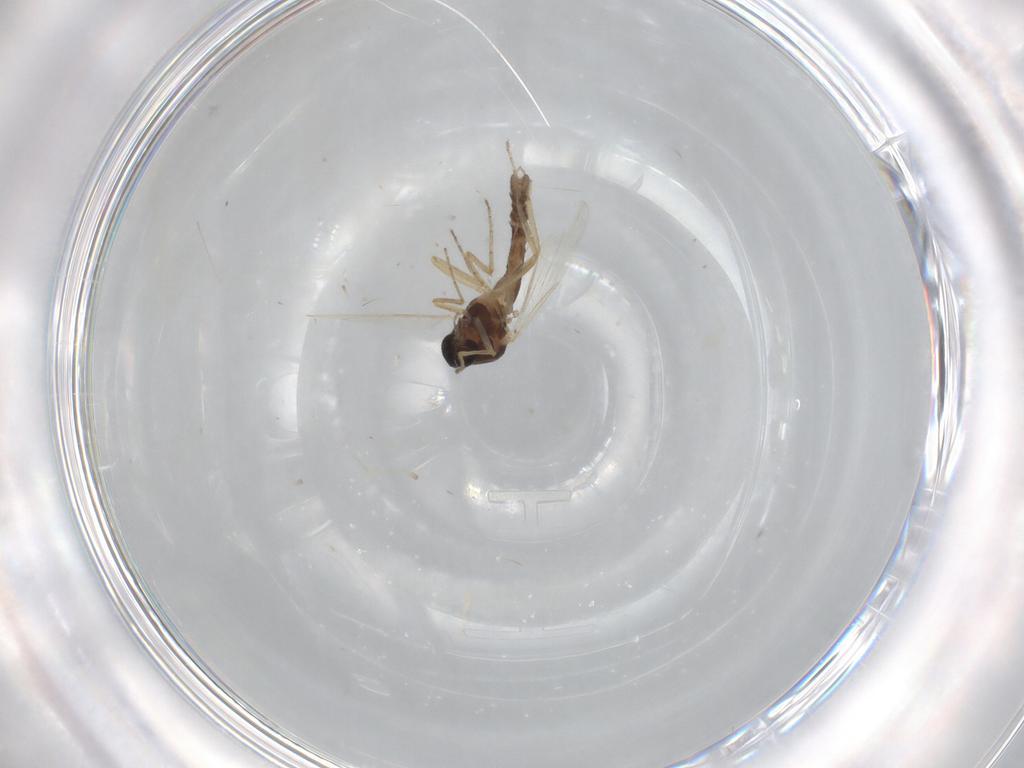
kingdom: Animalia
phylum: Arthropoda
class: Insecta
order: Diptera
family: Ceratopogonidae
